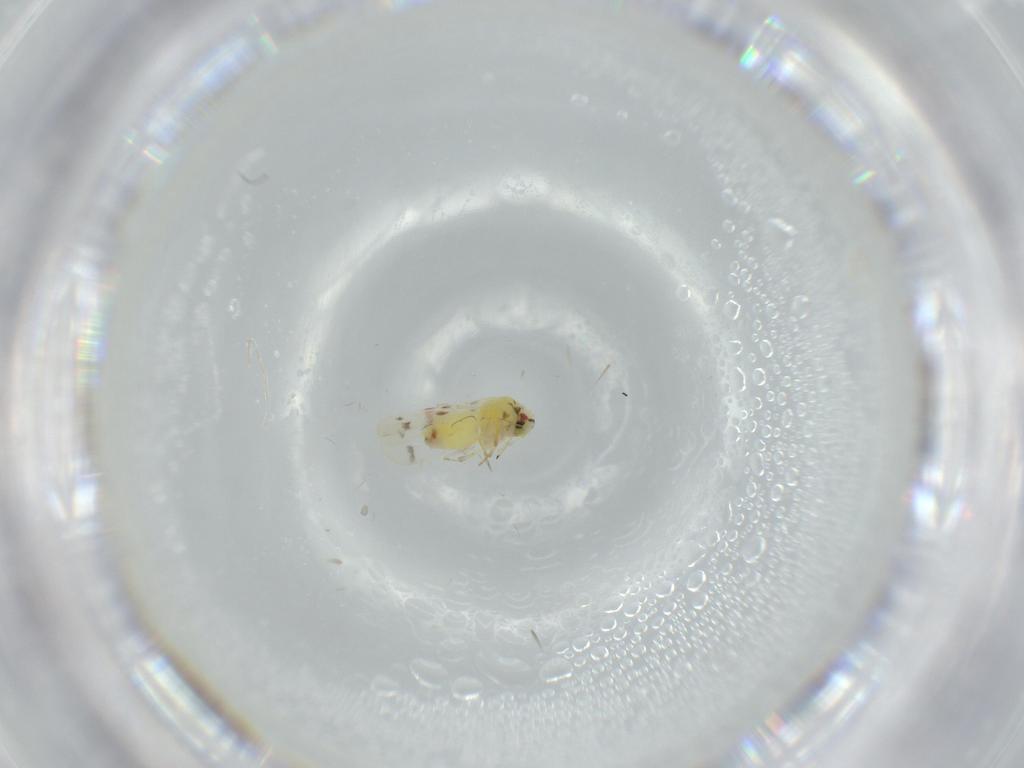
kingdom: Animalia
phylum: Arthropoda
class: Insecta
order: Hemiptera
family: Aleyrodidae
